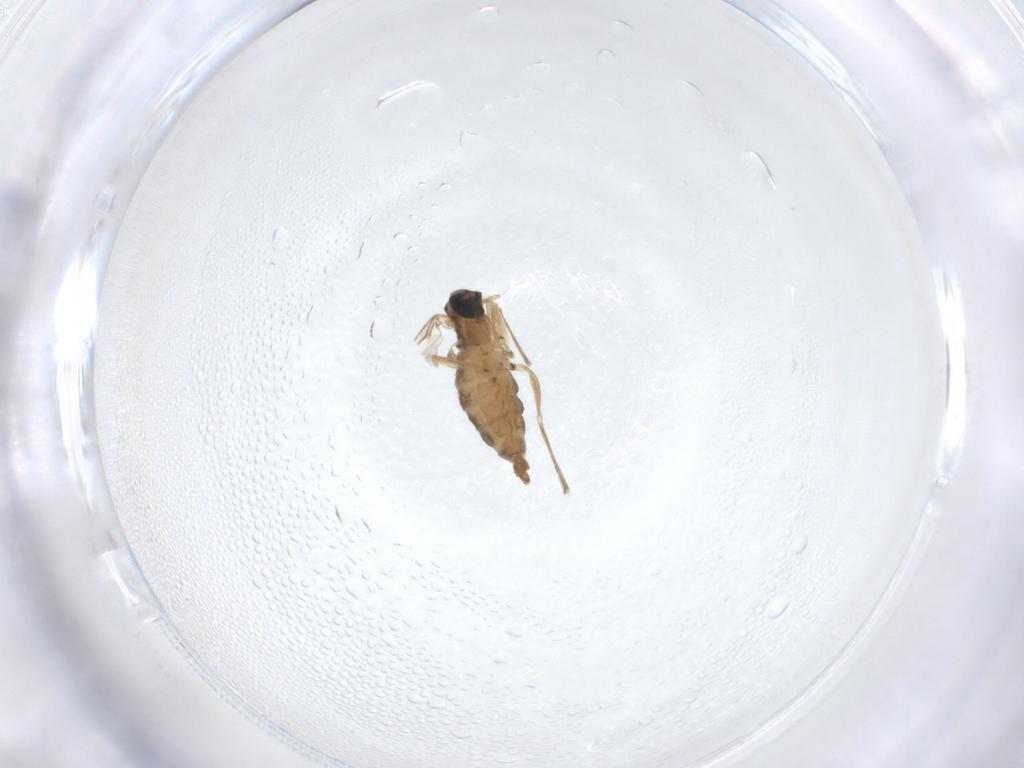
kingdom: Animalia
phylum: Arthropoda
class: Insecta
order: Diptera
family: Sciaridae
